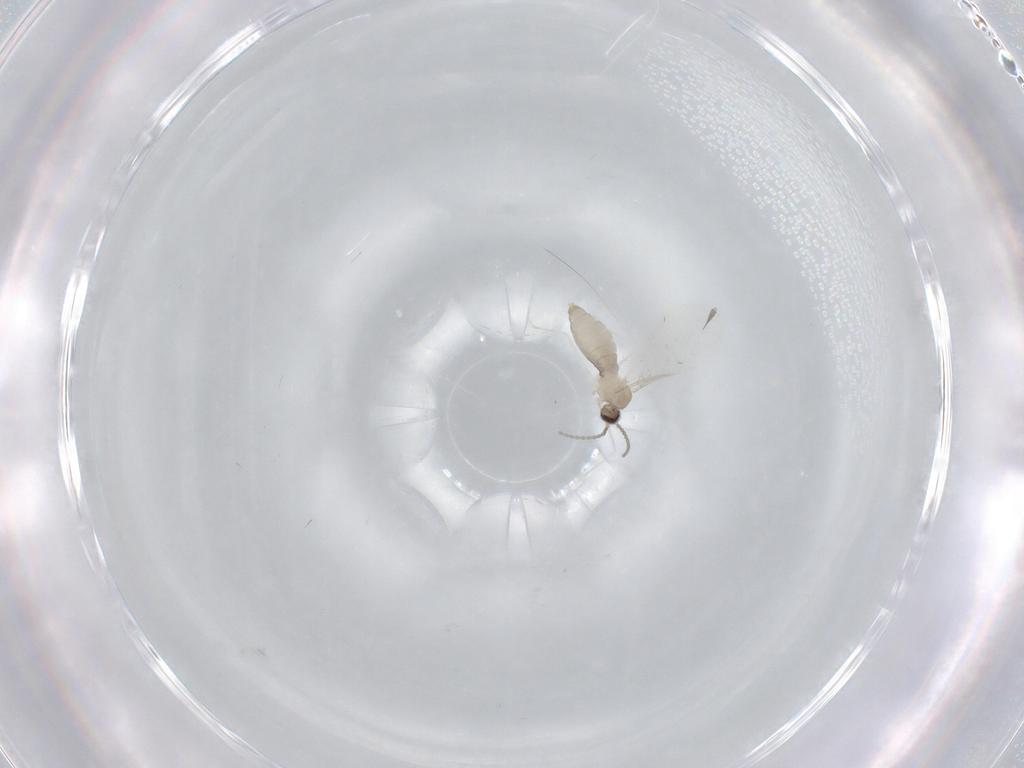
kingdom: Animalia
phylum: Arthropoda
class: Insecta
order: Diptera
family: Cecidomyiidae
